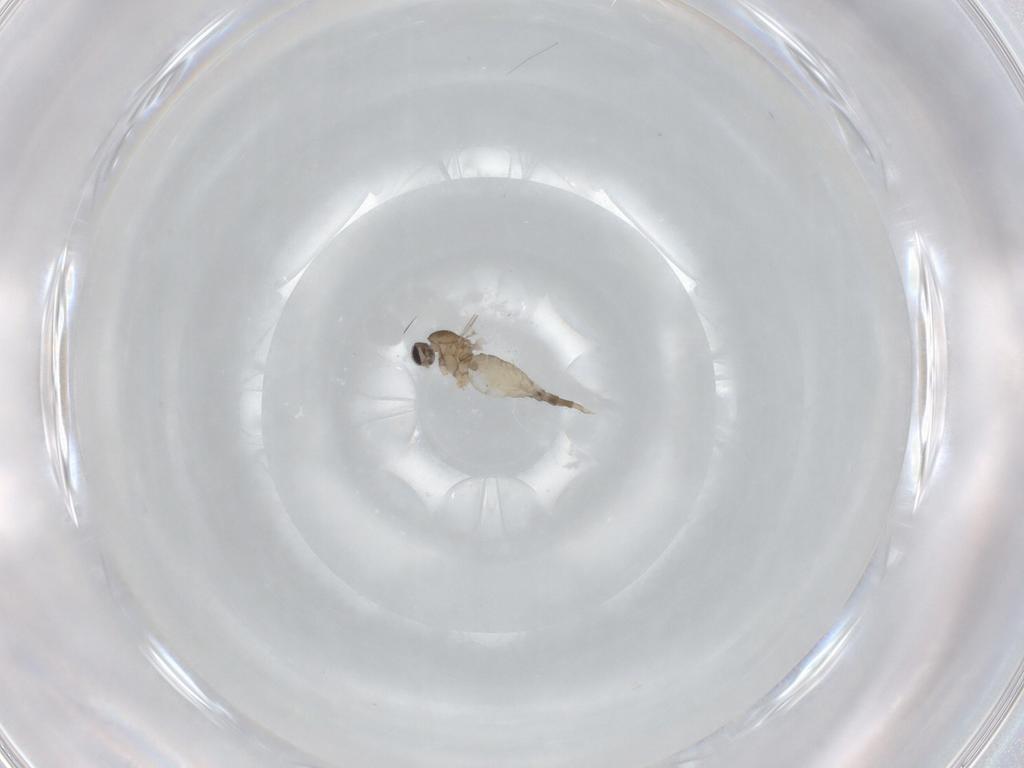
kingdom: Animalia
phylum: Arthropoda
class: Insecta
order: Diptera
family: Cecidomyiidae
